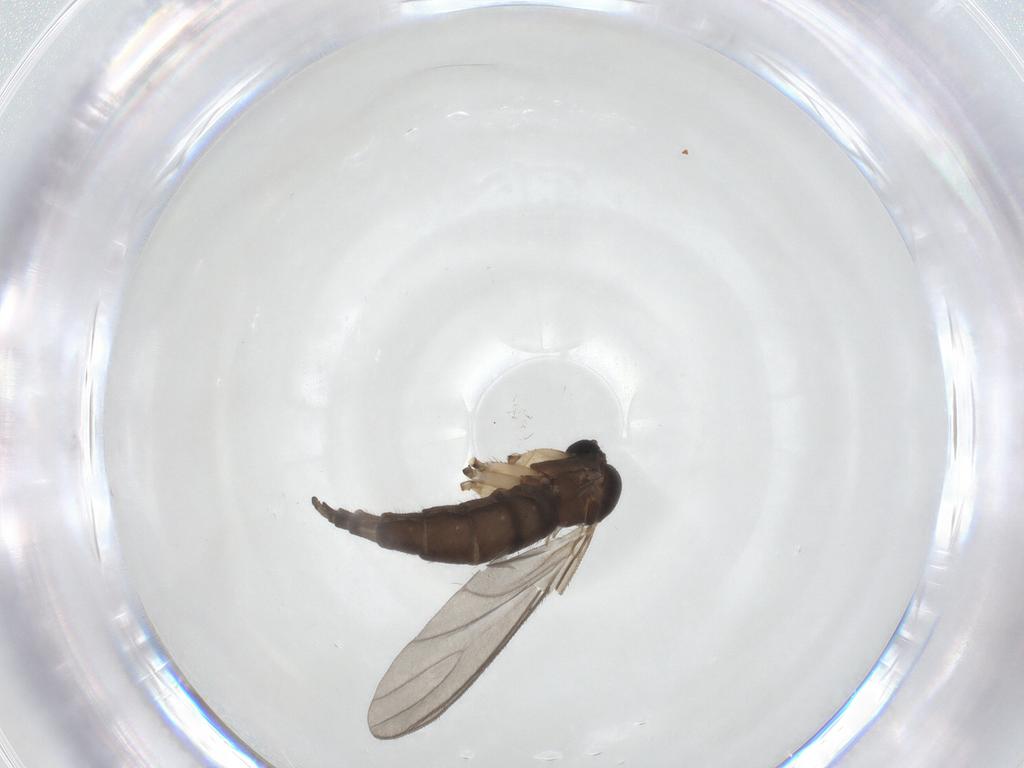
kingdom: Animalia
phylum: Arthropoda
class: Insecta
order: Diptera
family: Sciaridae
